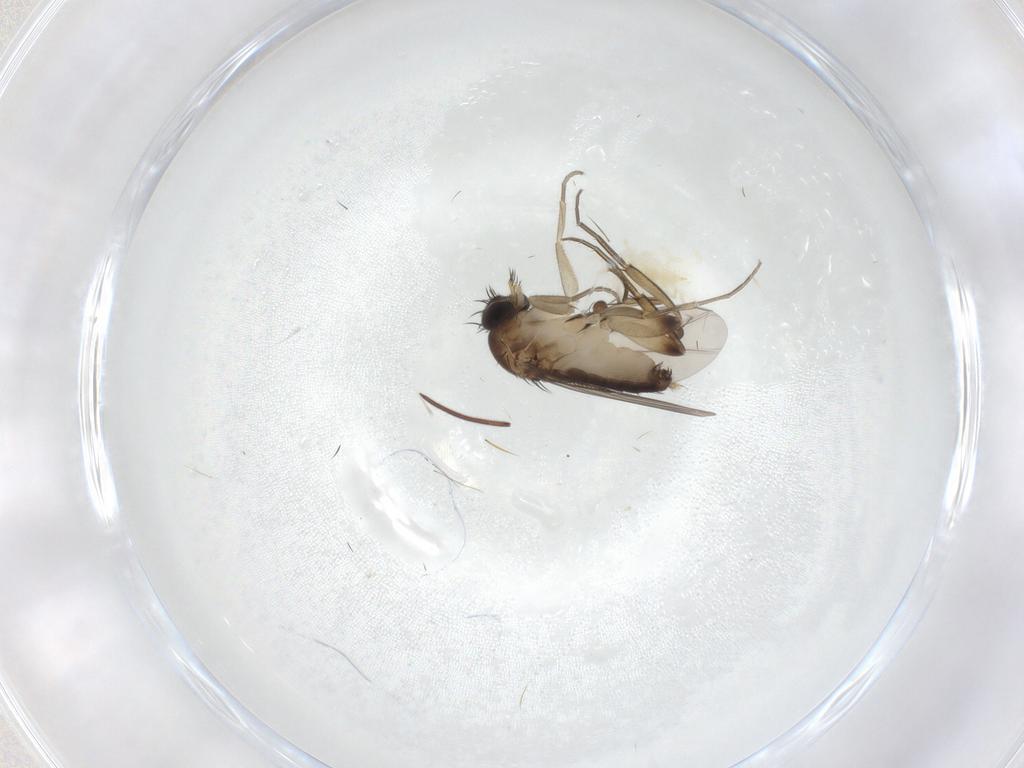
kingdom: Animalia
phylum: Arthropoda
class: Insecta
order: Diptera
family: Phoridae
